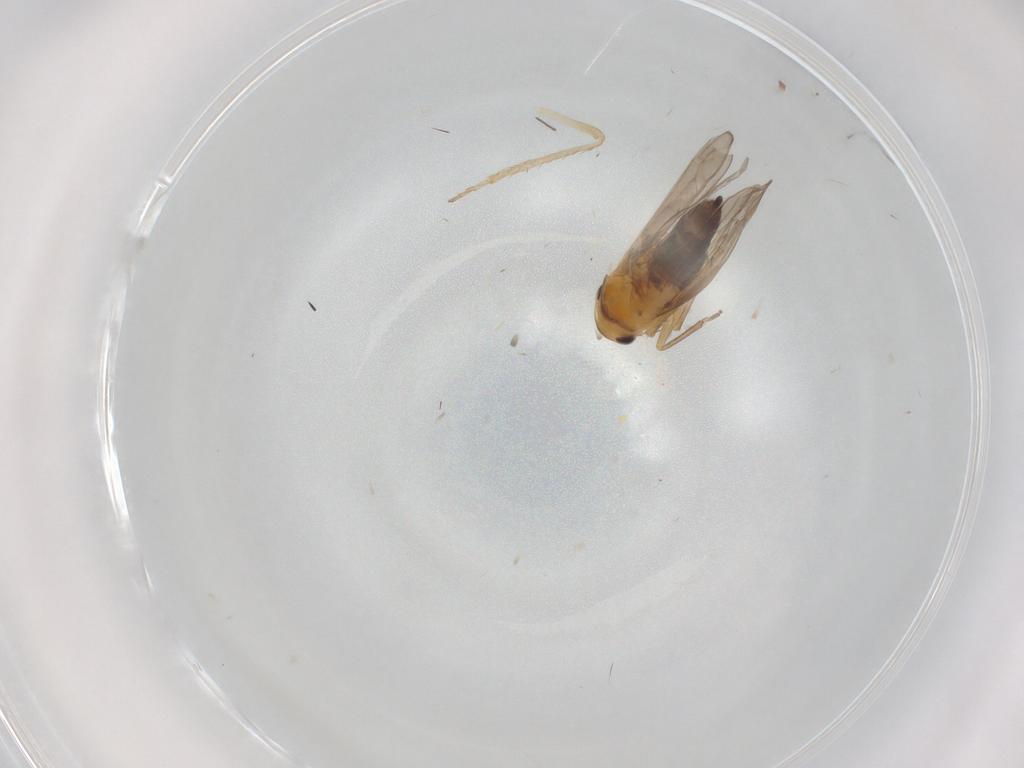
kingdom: Animalia
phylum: Arthropoda
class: Insecta
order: Hemiptera
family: Cicadellidae
